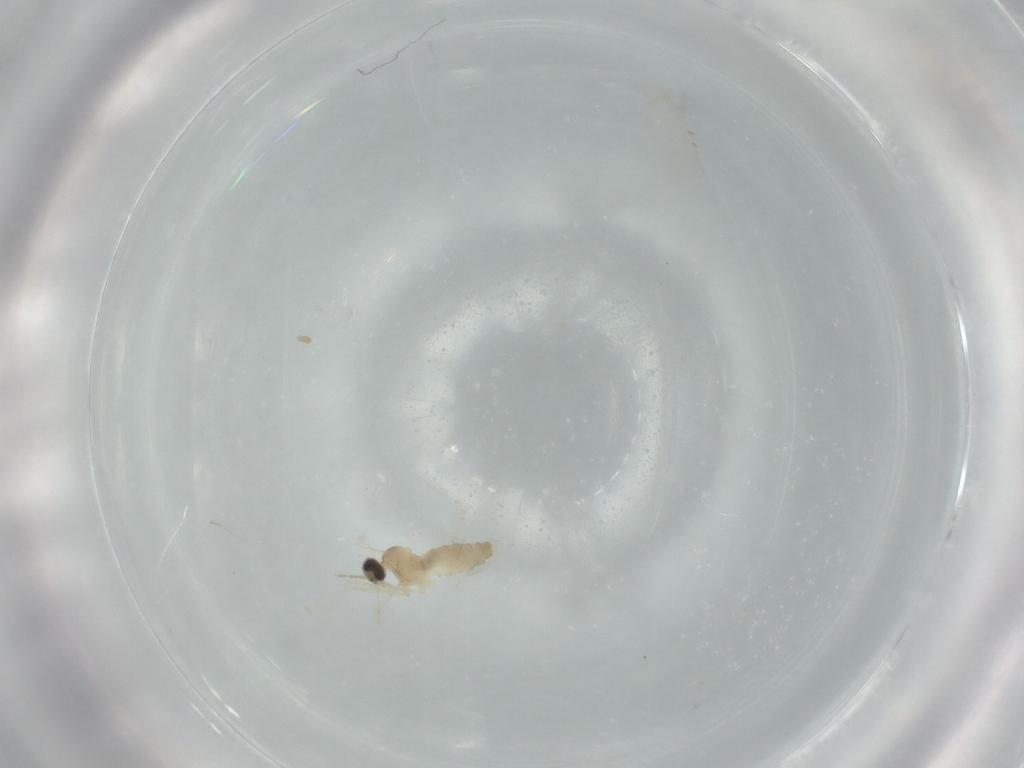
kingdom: Animalia
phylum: Arthropoda
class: Insecta
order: Diptera
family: Cecidomyiidae
